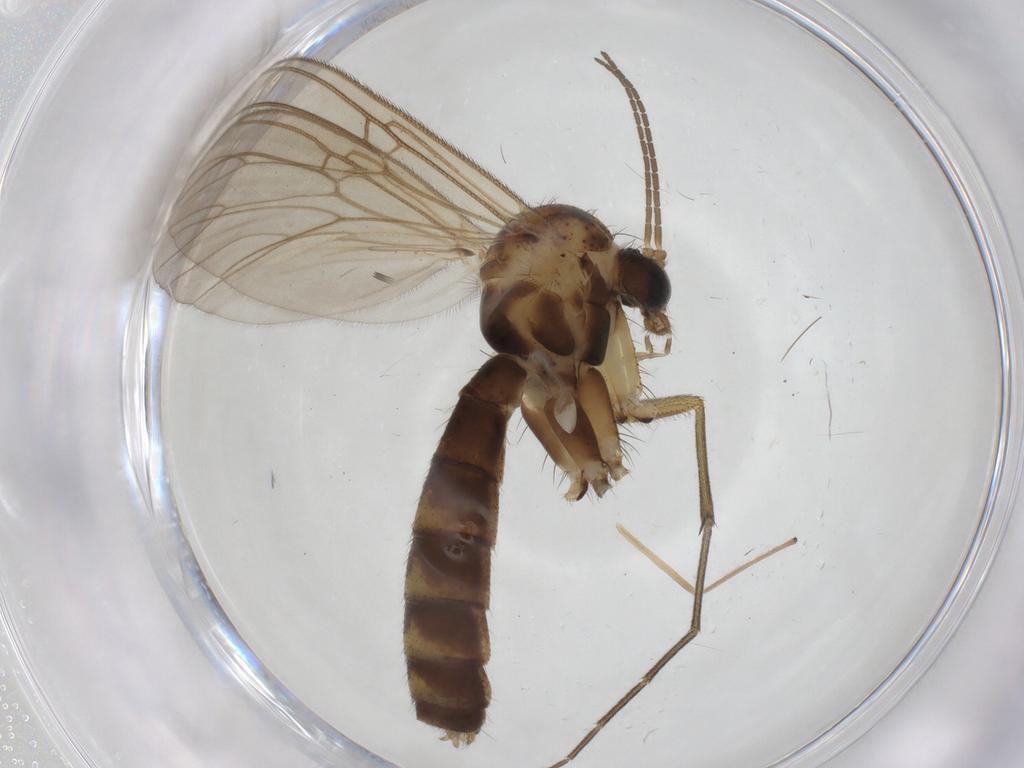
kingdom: Animalia
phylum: Arthropoda
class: Insecta
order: Diptera
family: Mycetophilidae
